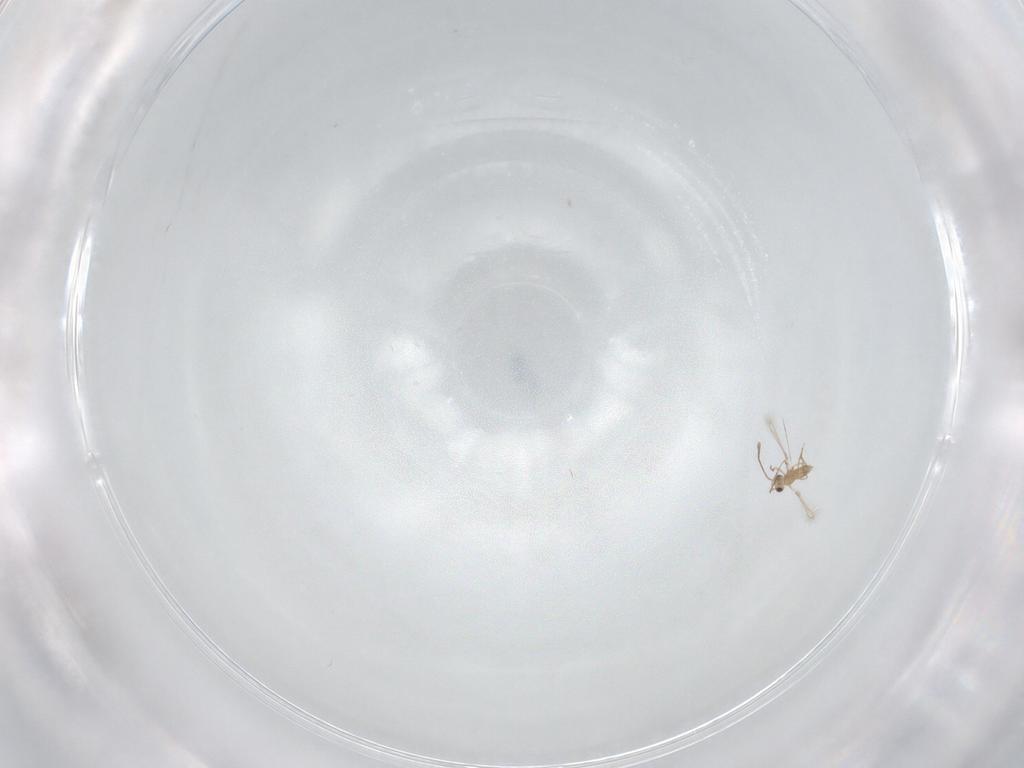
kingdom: Animalia
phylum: Arthropoda
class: Insecta
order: Hymenoptera
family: Mymaridae
